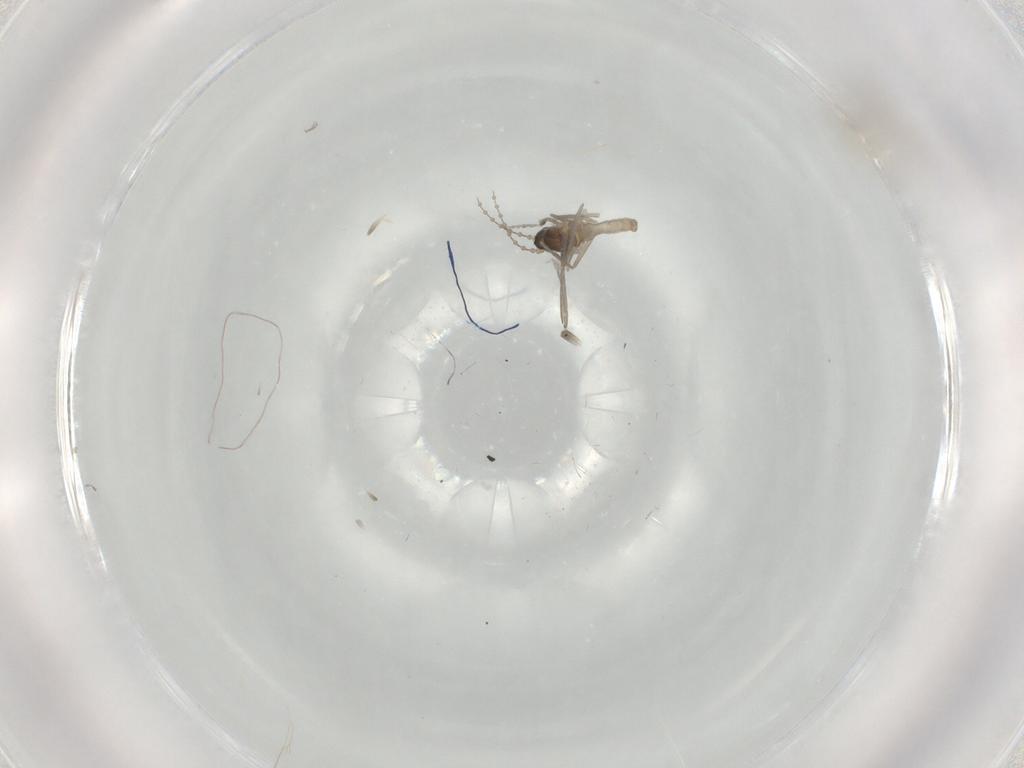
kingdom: Animalia
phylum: Arthropoda
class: Insecta
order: Diptera
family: Cecidomyiidae
